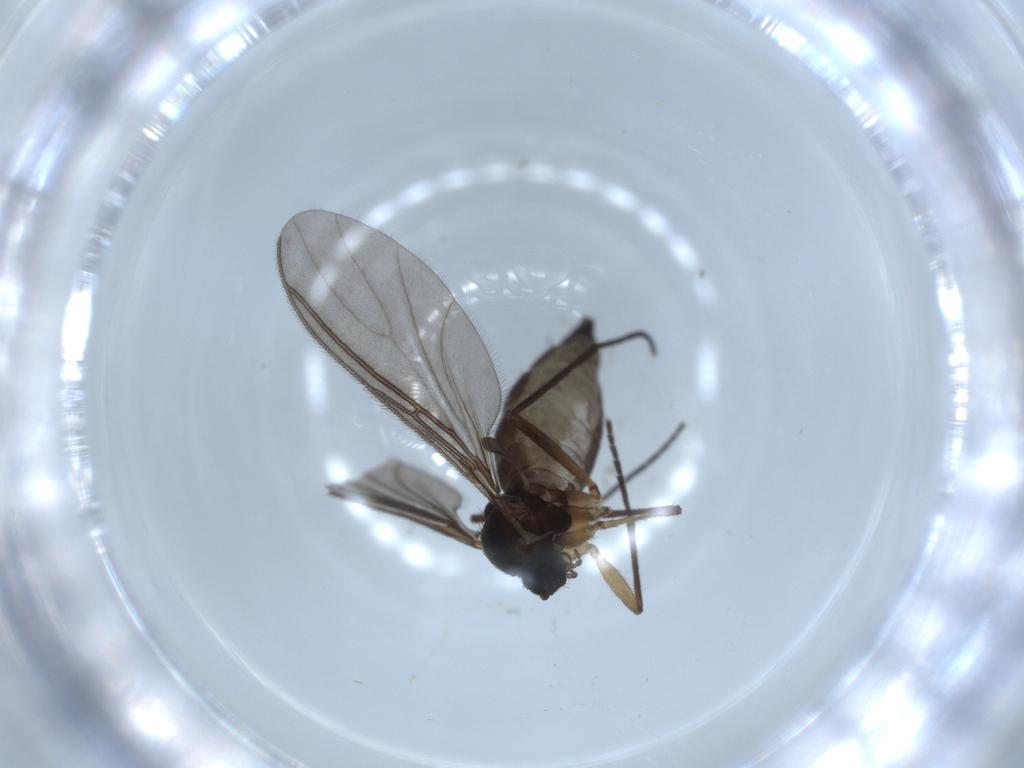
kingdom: Animalia
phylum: Arthropoda
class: Insecta
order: Diptera
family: Sciaridae
